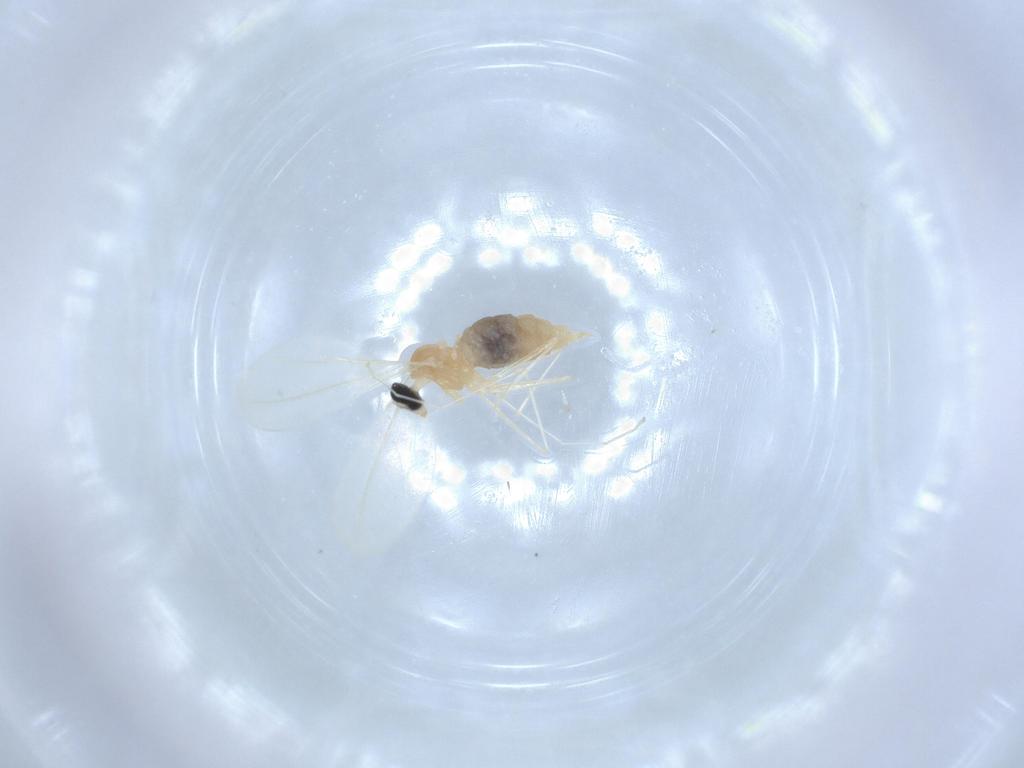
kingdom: Animalia
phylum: Arthropoda
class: Insecta
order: Diptera
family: Cecidomyiidae
